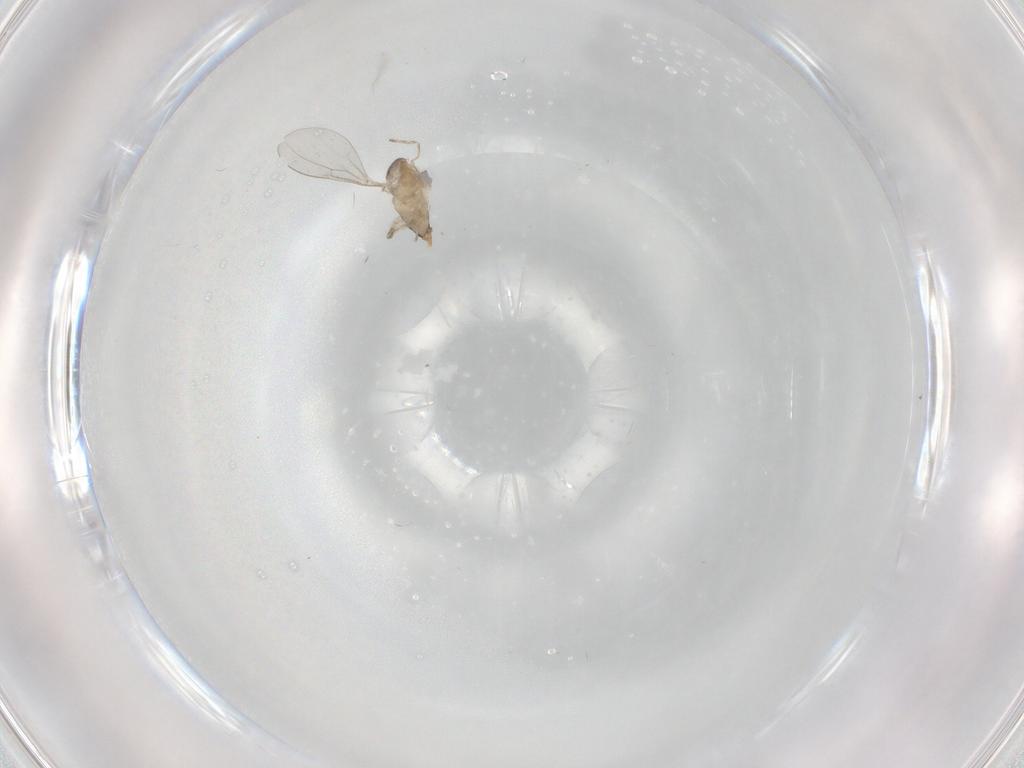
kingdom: Animalia
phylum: Arthropoda
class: Insecta
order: Diptera
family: Cecidomyiidae
